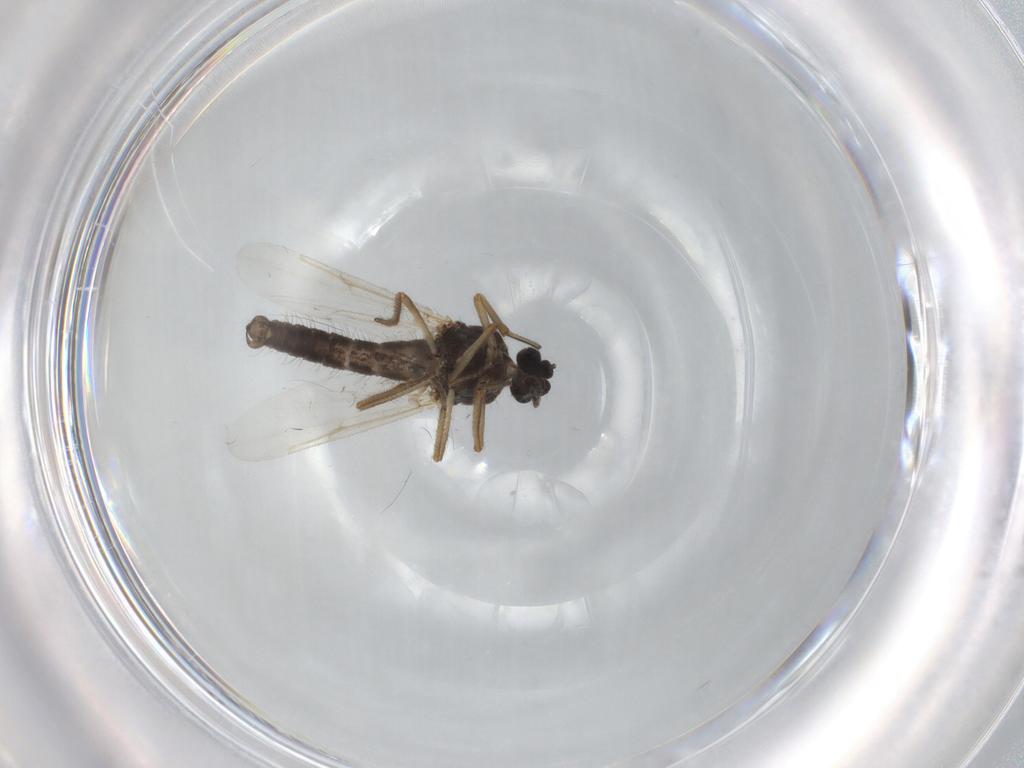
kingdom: Animalia
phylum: Arthropoda
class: Insecta
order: Diptera
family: Ceratopogonidae
